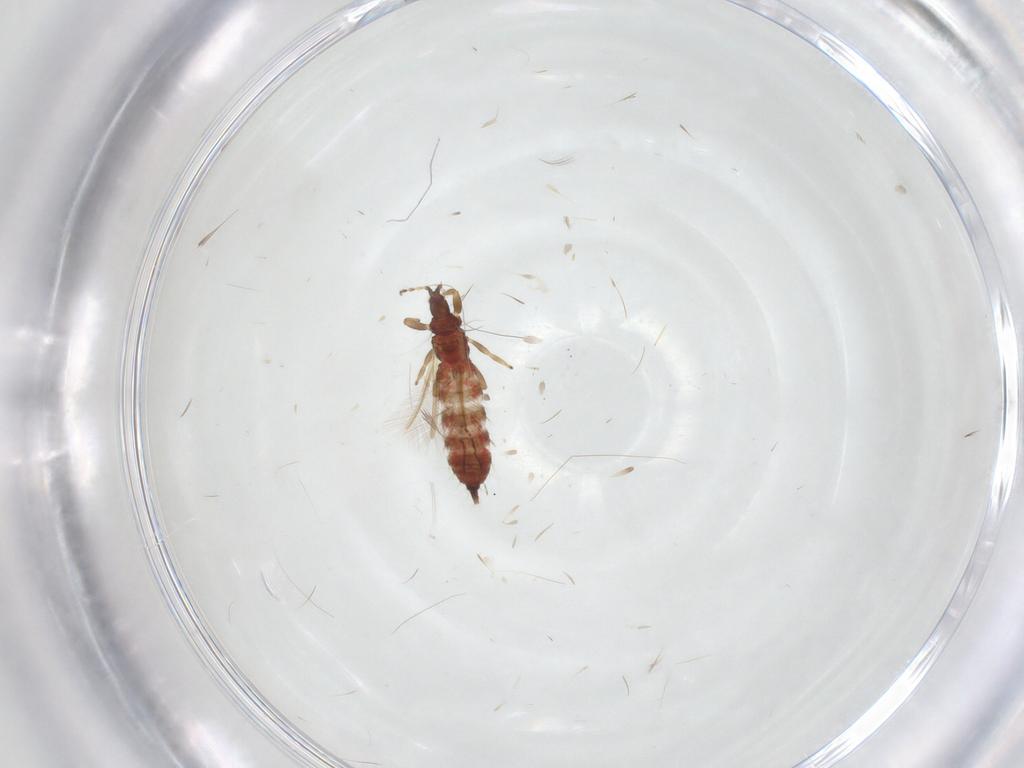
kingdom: Animalia
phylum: Arthropoda
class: Insecta
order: Thysanoptera
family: Phlaeothripidae
